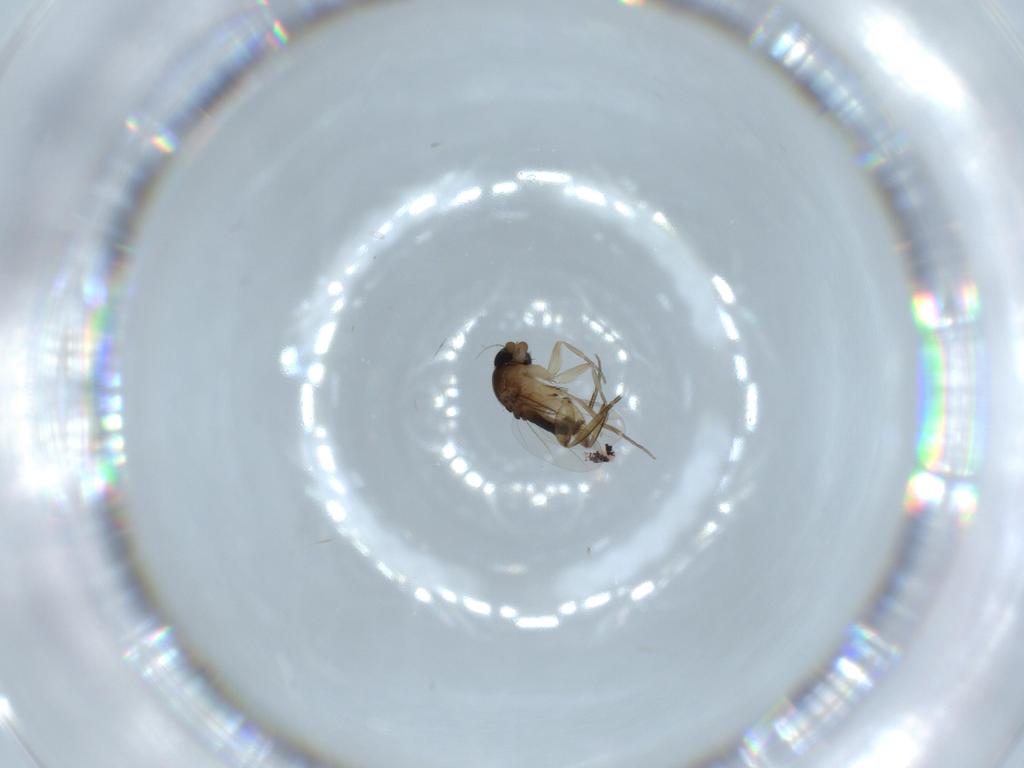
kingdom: Animalia
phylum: Arthropoda
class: Insecta
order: Diptera
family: Phoridae
